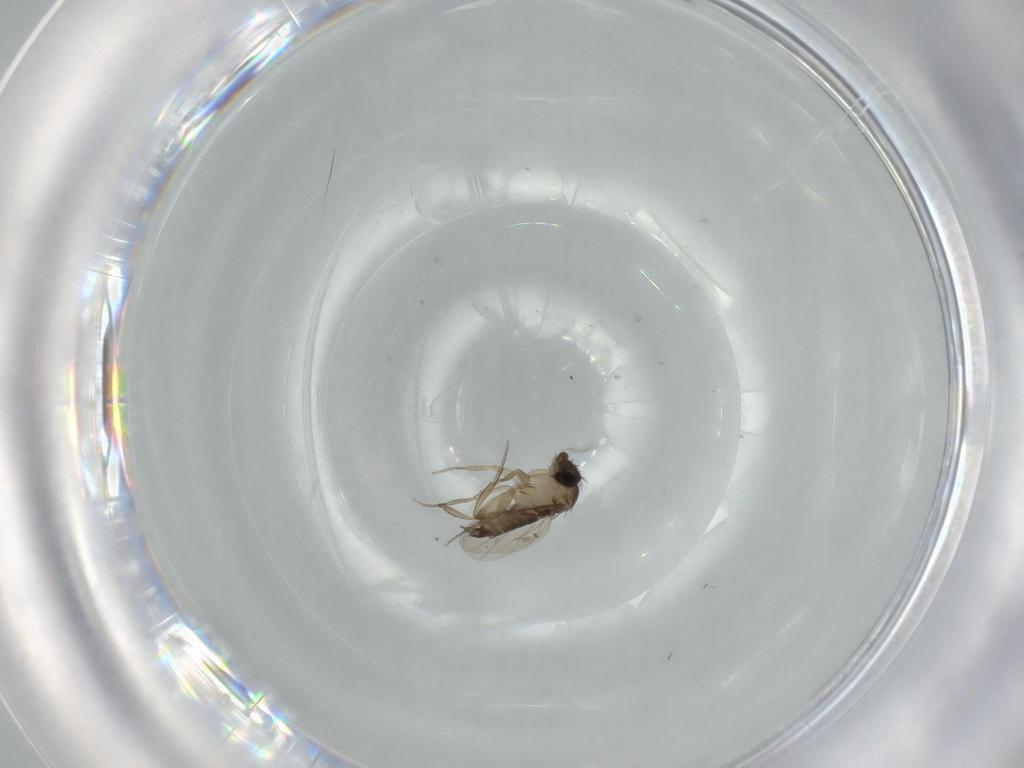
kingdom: Animalia
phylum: Arthropoda
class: Insecta
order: Diptera
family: Phoridae
